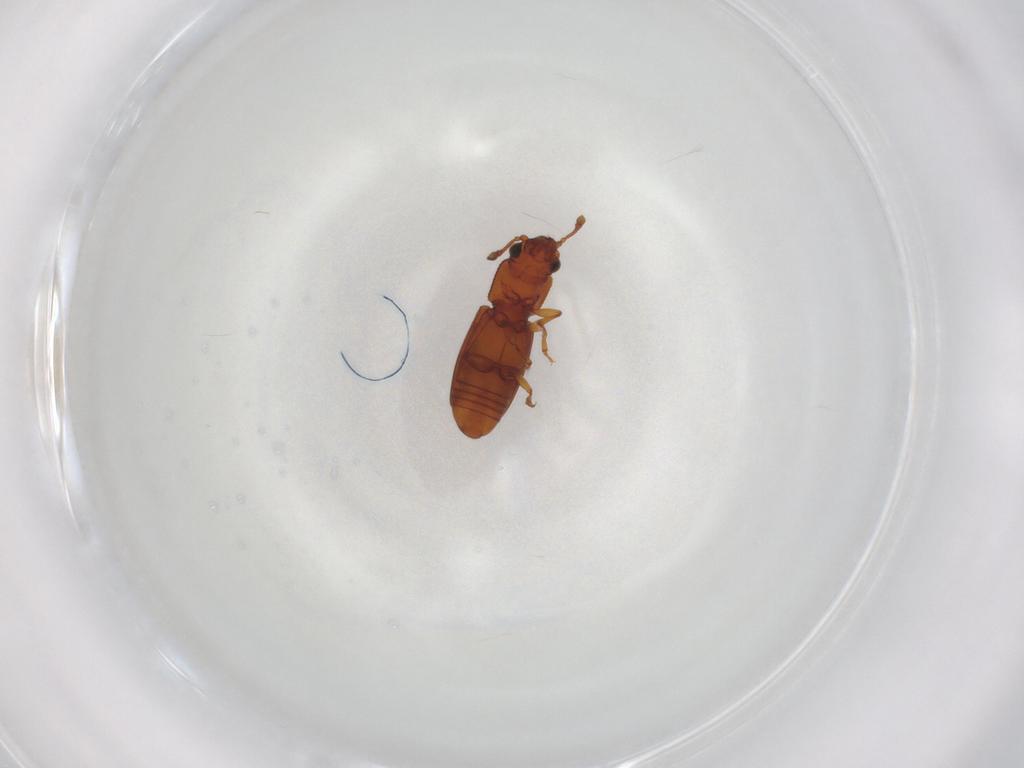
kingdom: Animalia
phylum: Arthropoda
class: Insecta
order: Coleoptera
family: Monotomidae
